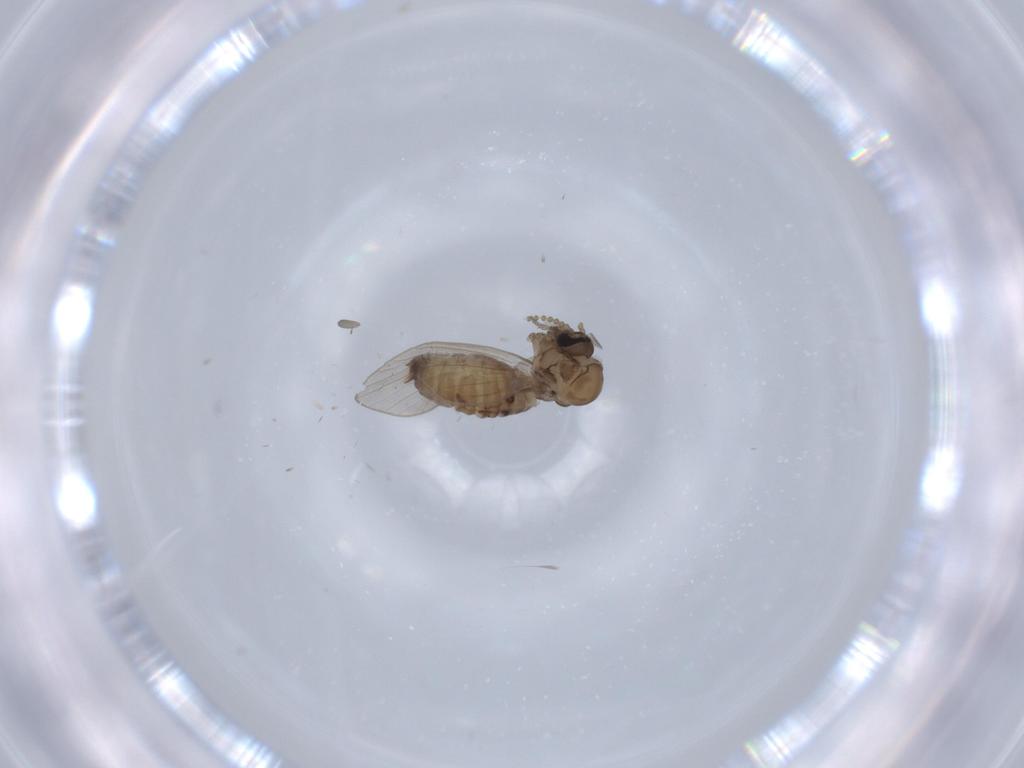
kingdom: Animalia
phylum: Arthropoda
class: Insecta
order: Diptera
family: Psychodidae
